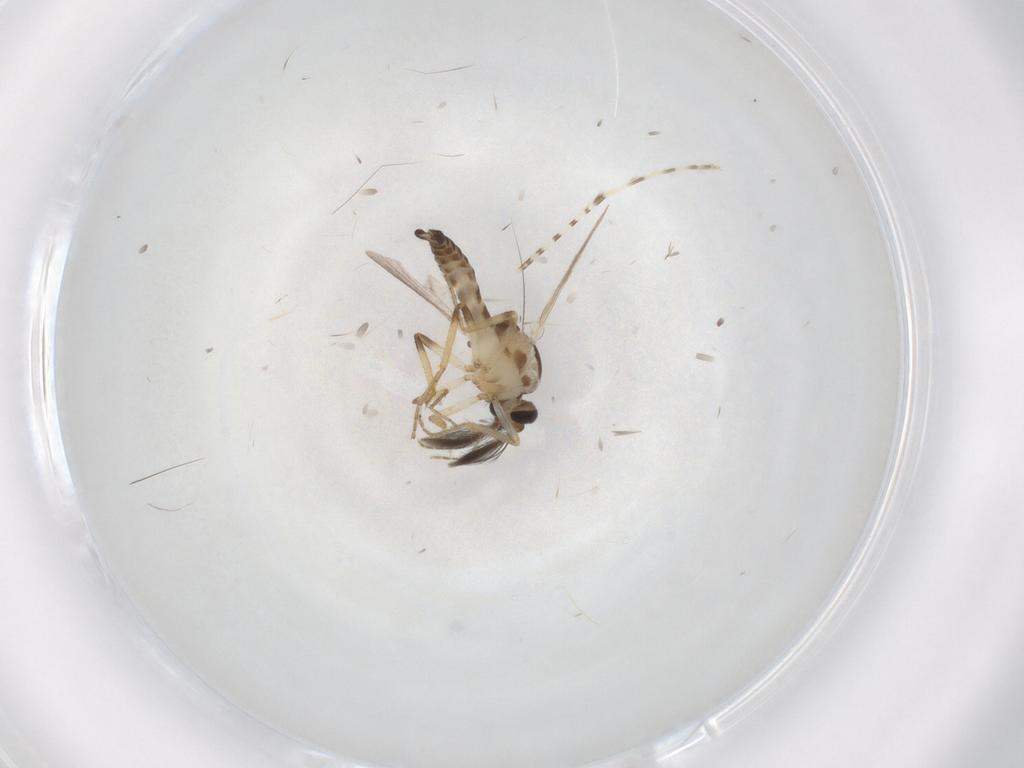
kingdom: Animalia
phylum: Arthropoda
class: Insecta
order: Diptera
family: Ceratopogonidae
